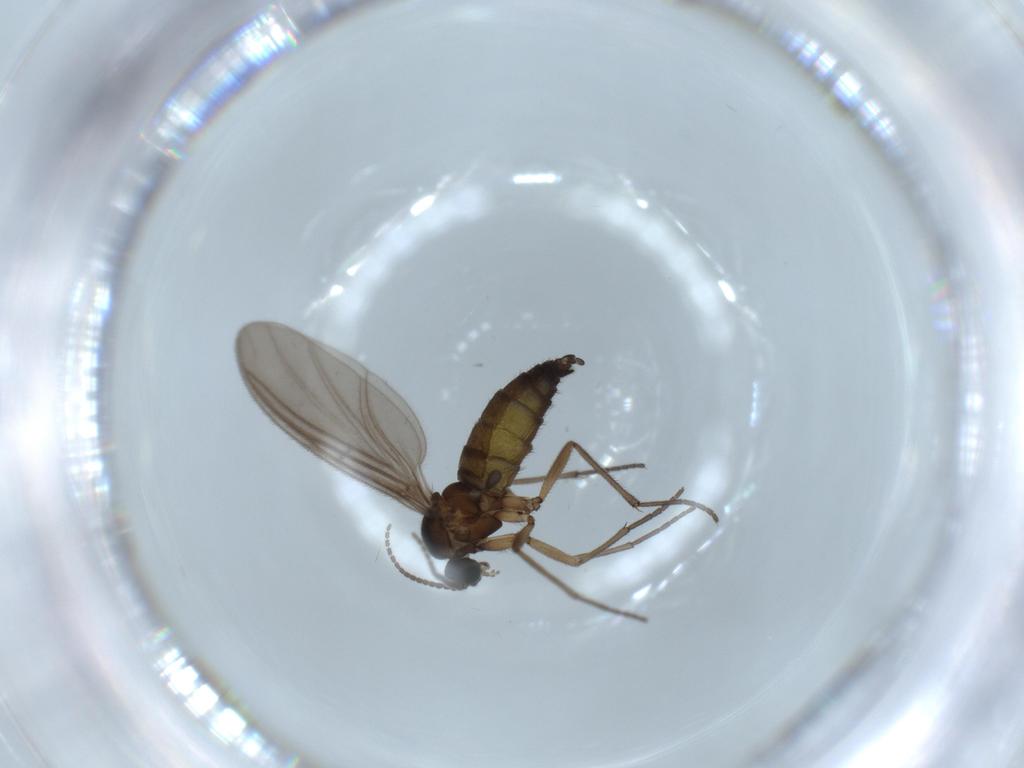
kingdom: Animalia
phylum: Arthropoda
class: Insecta
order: Diptera
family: Sciaridae
